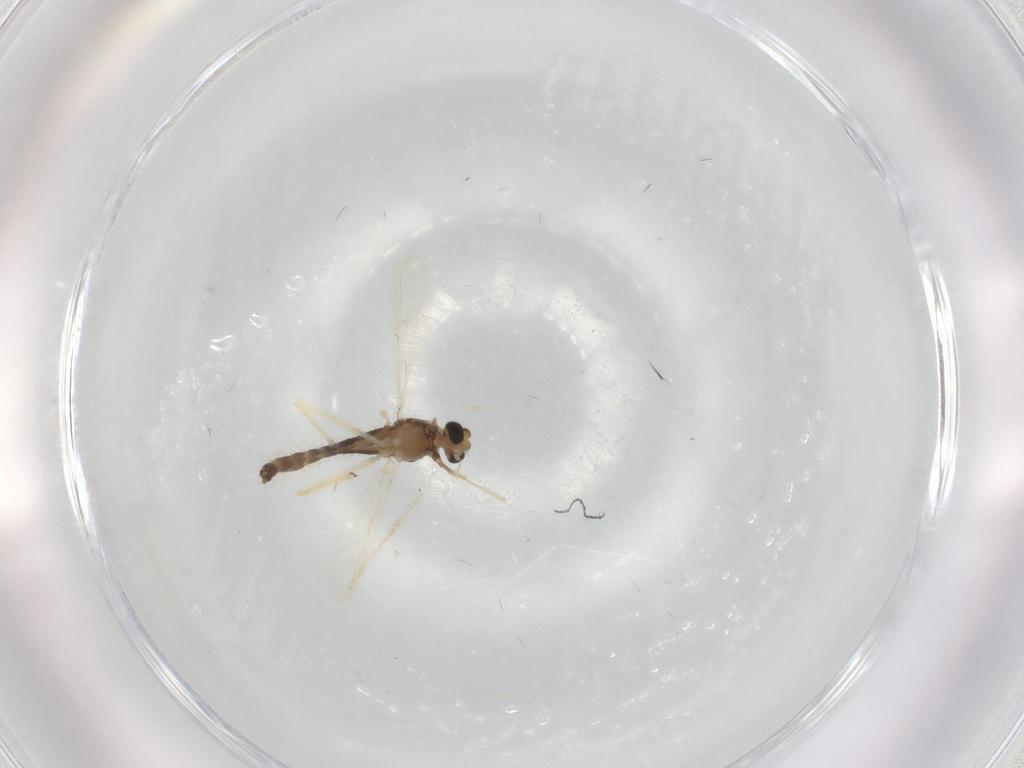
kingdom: Animalia
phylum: Arthropoda
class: Insecta
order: Diptera
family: Chironomidae
